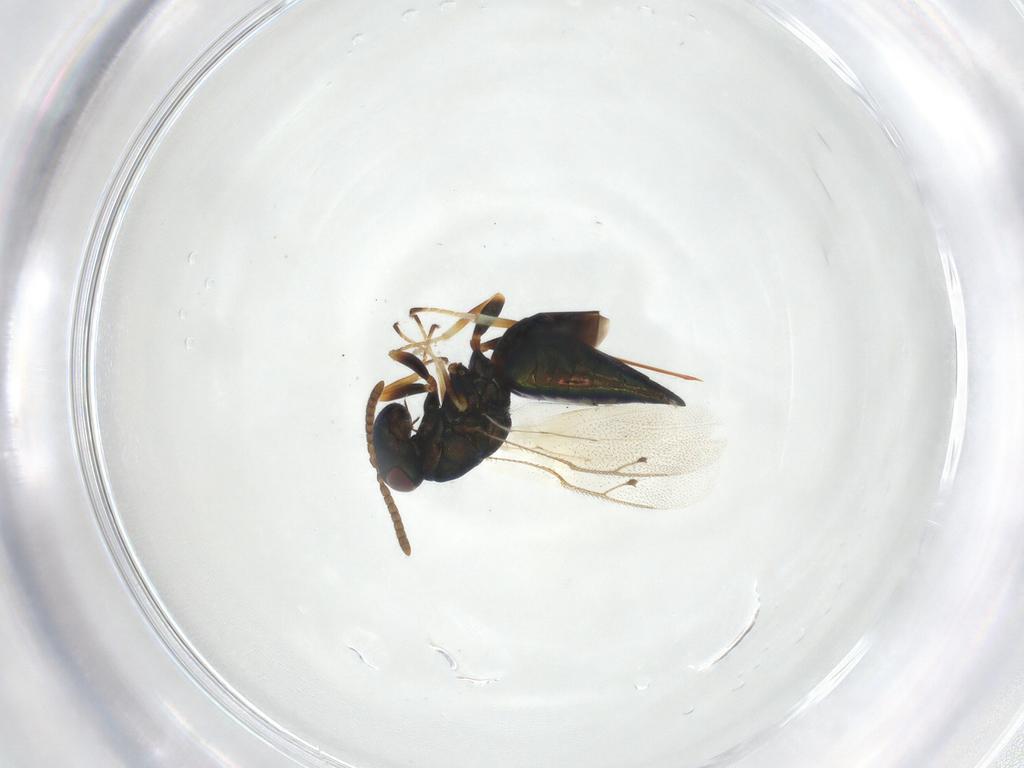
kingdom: Animalia
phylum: Arthropoda
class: Insecta
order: Hymenoptera
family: Pteromalidae
